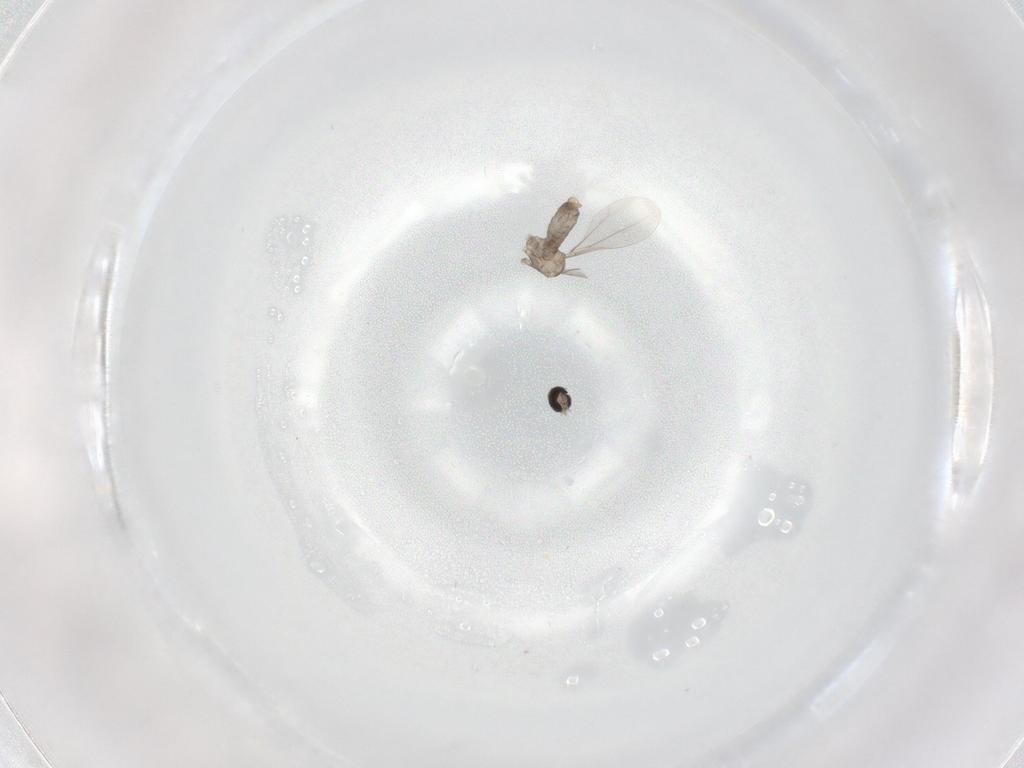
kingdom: Animalia
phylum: Arthropoda
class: Insecta
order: Diptera
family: Cecidomyiidae
